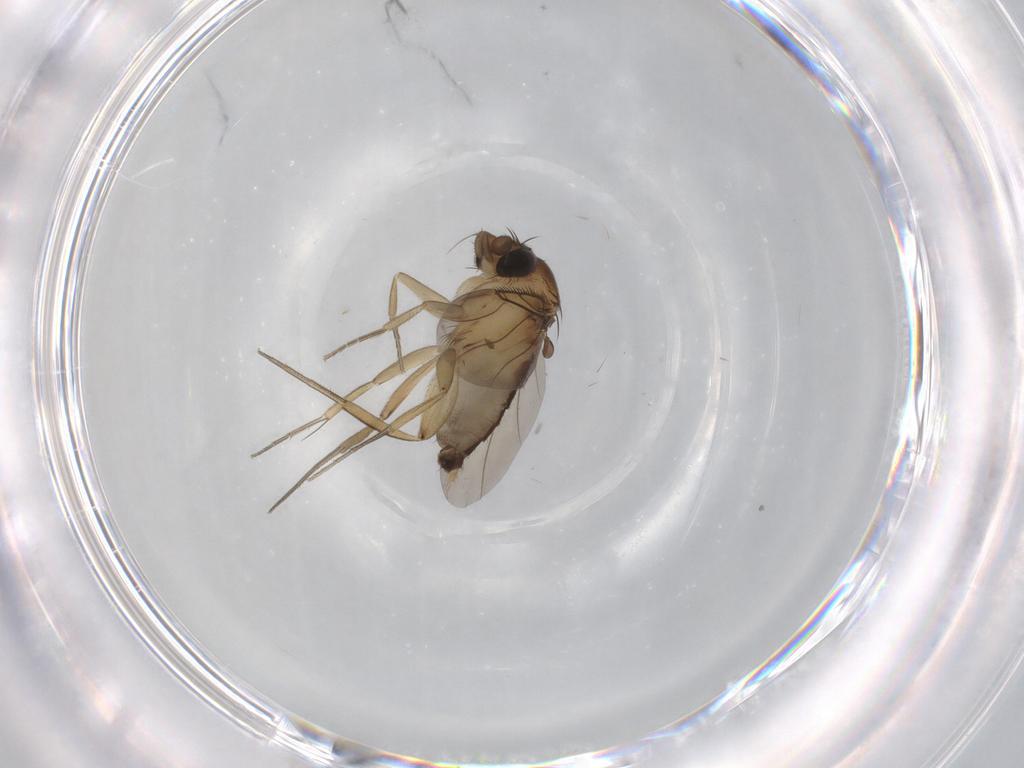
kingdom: Animalia
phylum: Arthropoda
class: Insecta
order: Diptera
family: Phoridae
